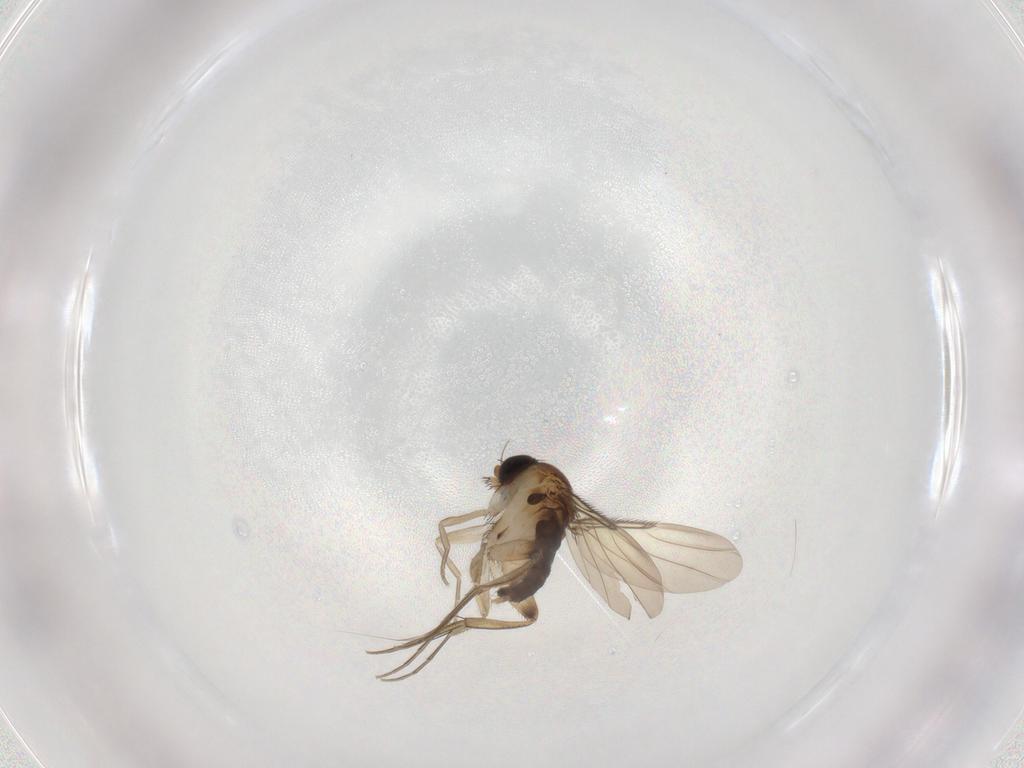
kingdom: Animalia
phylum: Arthropoda
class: Insecta
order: Diptera
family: Phoridae
